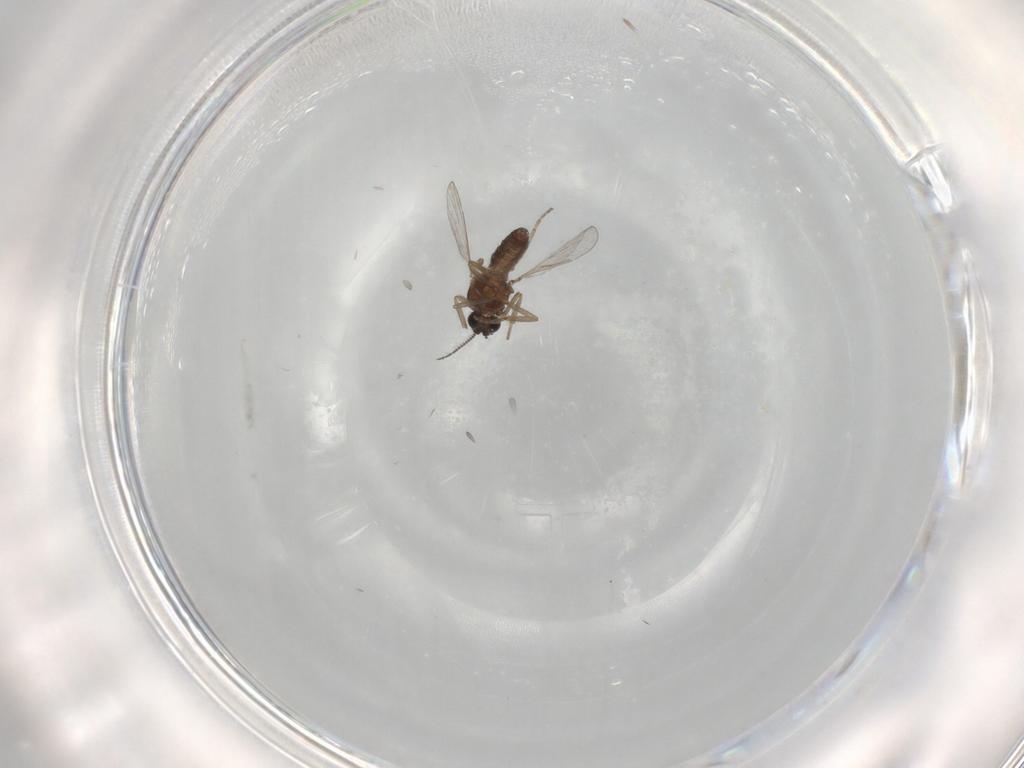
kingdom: Animalia
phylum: Arthropoda
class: Insecta
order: Diptera
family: Ceratopogonidae
